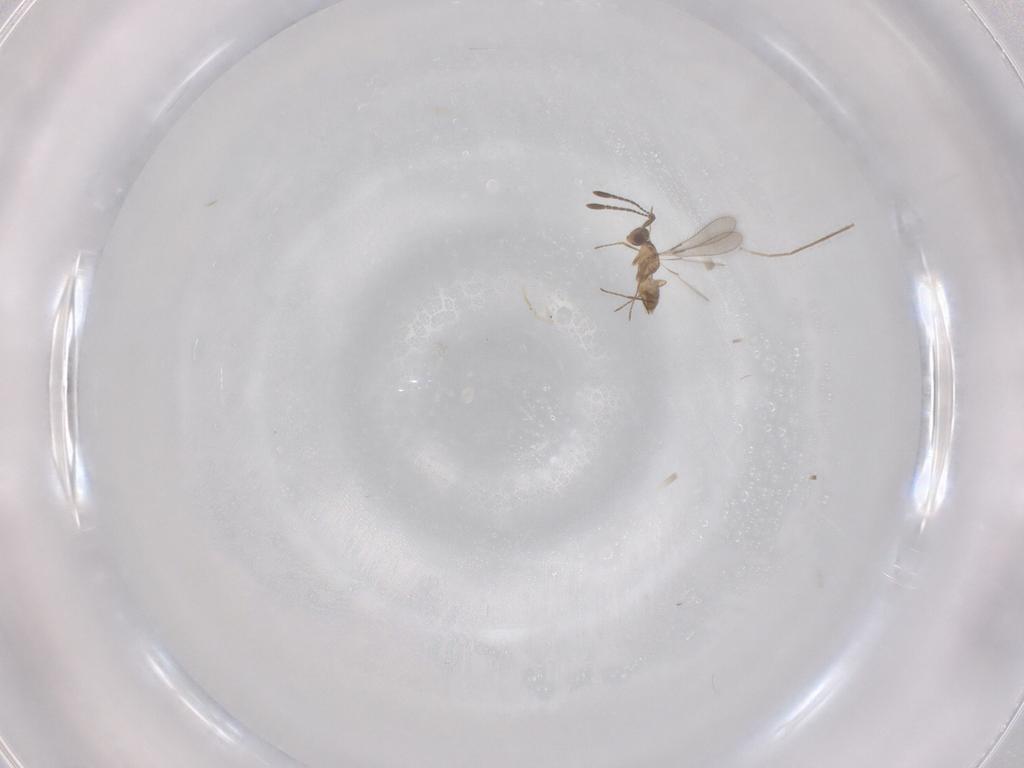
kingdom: Animalia
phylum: Arthropoda
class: Insecta
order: Hymenoptera
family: Mymaridae
